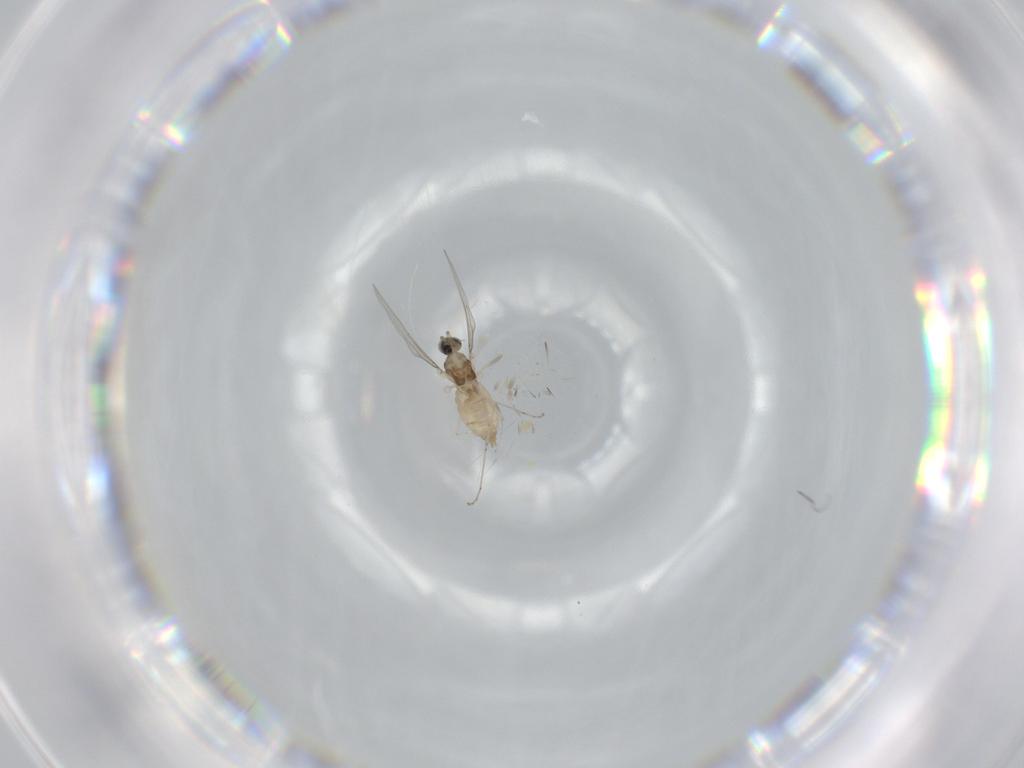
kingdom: Animalia
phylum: Arthropoda
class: Insecta
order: Diptera
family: Cecidomyiidae
